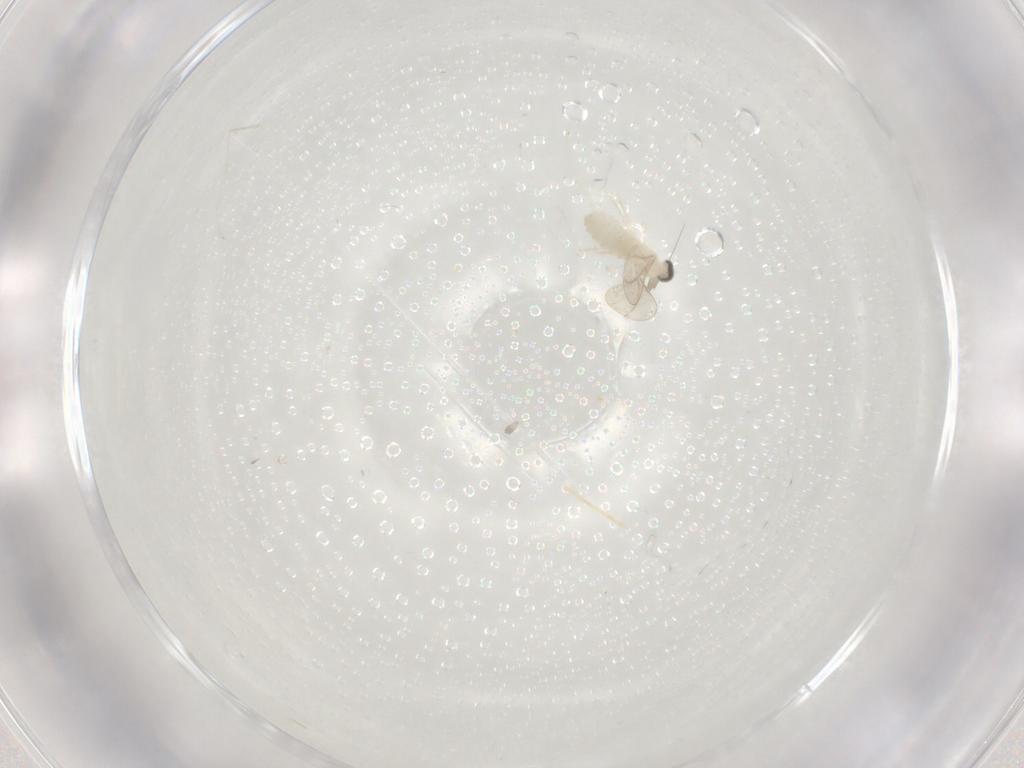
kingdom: Animalia
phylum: Arthropoda
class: Insecta
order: Diptera
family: Cecidomyiidae
